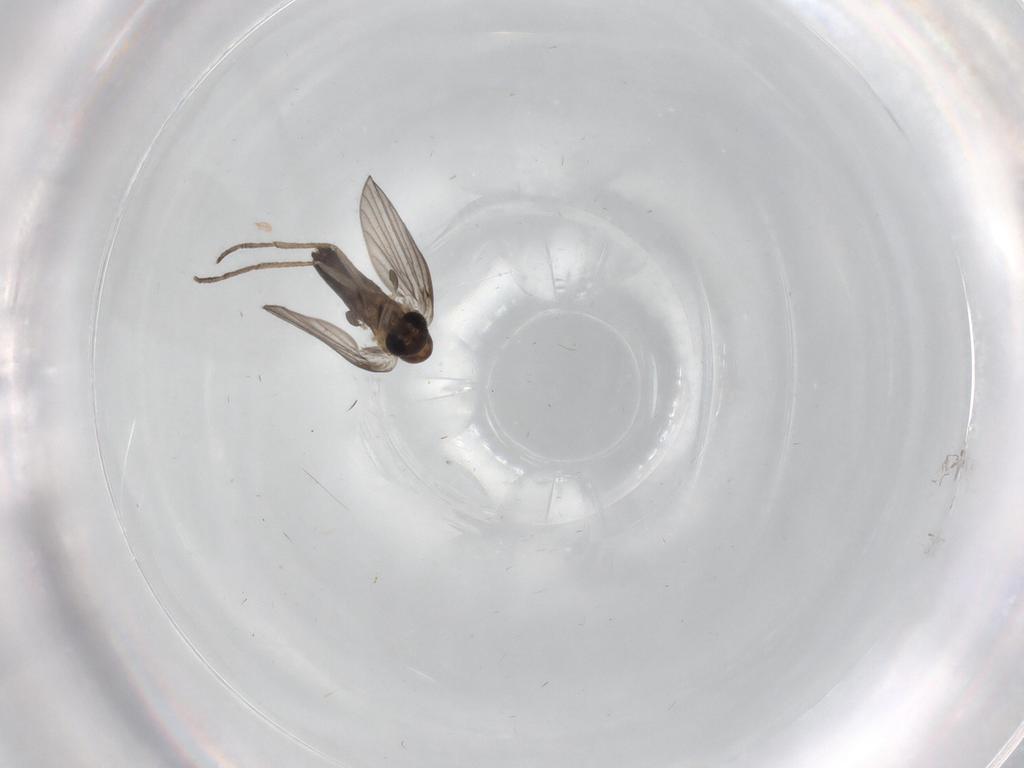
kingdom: Animalia
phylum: Arthropoda
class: Insecta
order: Diptera
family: Psychodidae
